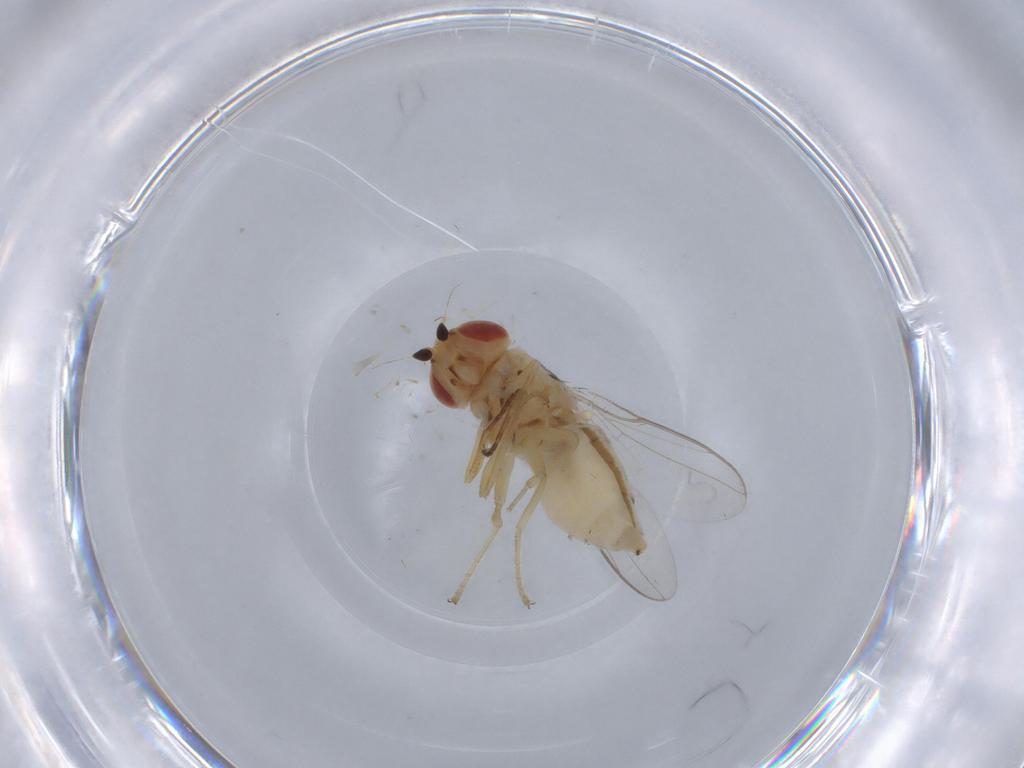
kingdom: Animalia
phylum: Arthropoda
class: Insecta
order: Diptera
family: Chloropidae
